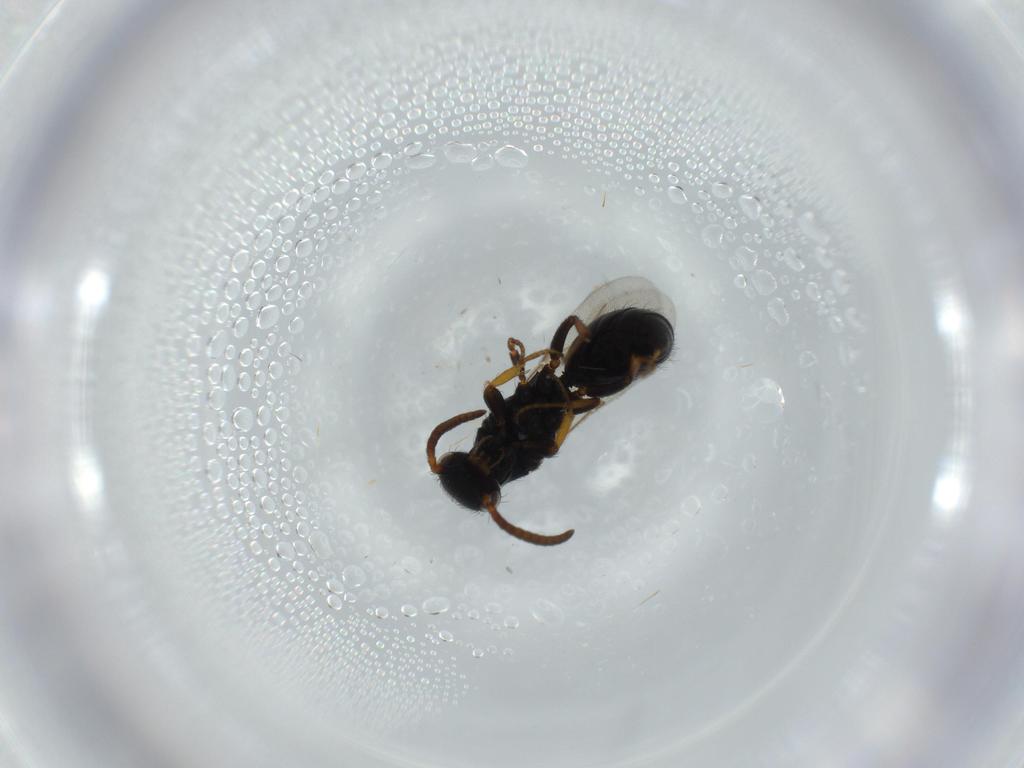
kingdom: Animalia
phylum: Arthropoda
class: Insecta
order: Hymenoptera
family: Bethylidae
